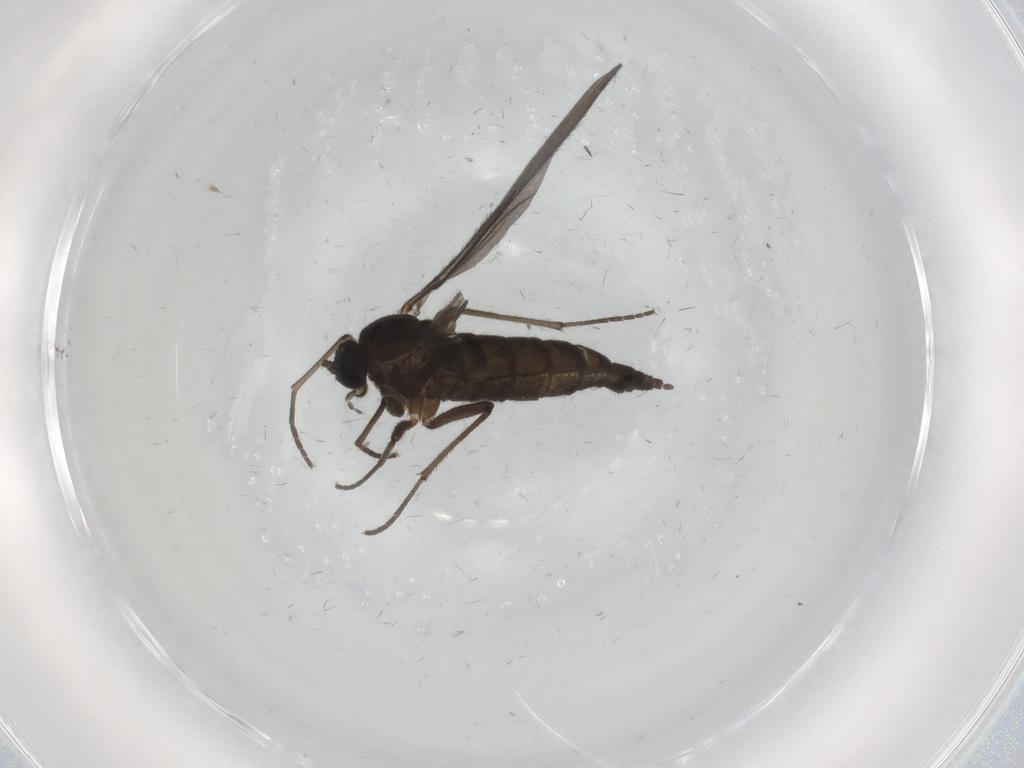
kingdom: Animalia
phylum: Arthropoda
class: Insecta
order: Diptera
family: Sciaridae
